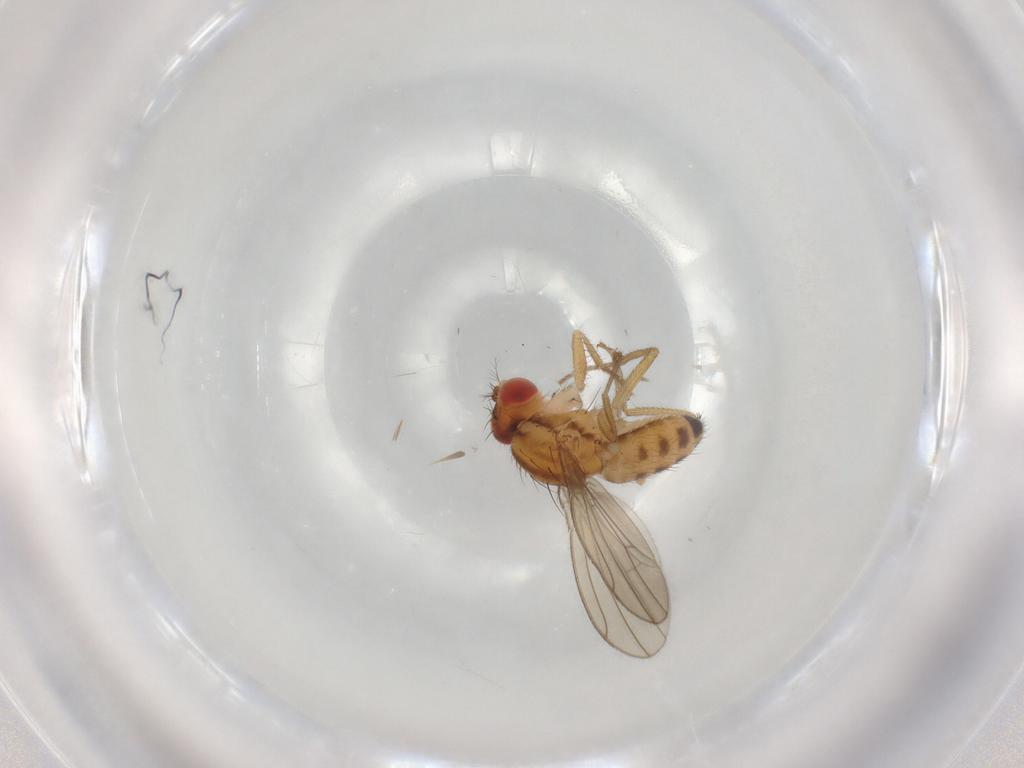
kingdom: Animalia
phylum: Arthropoda
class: Insecta
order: Diptera
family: Drosophilidae
